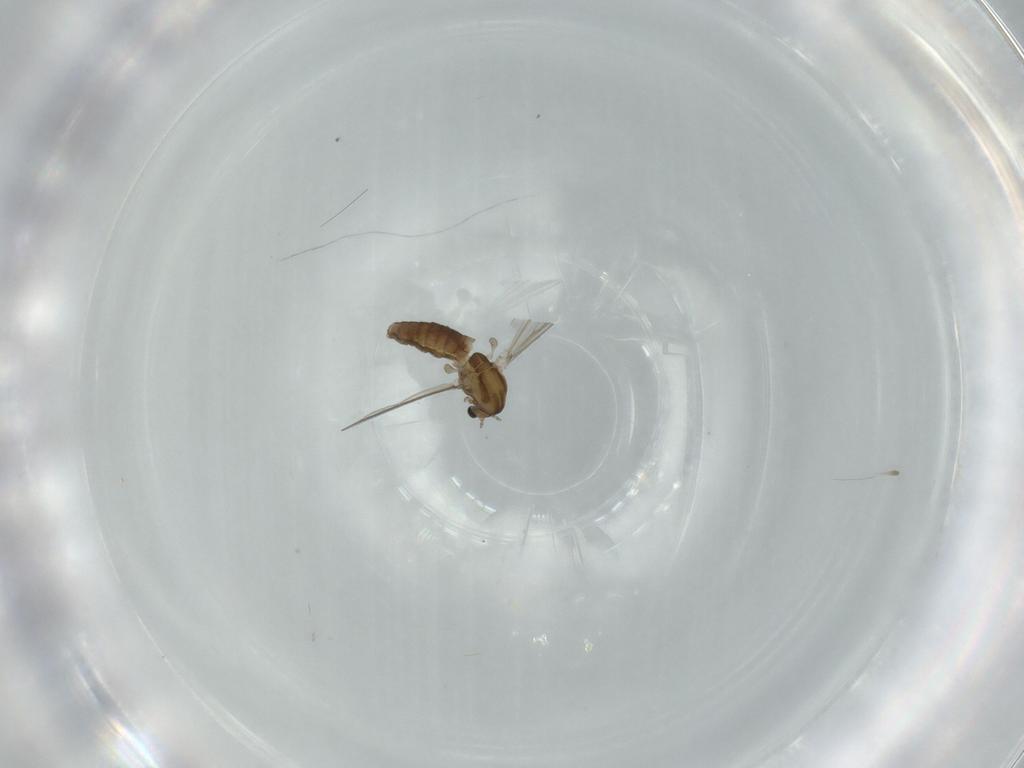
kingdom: Animalia
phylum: Arthropoda
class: Insecta
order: Diptera
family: Chironomidae
